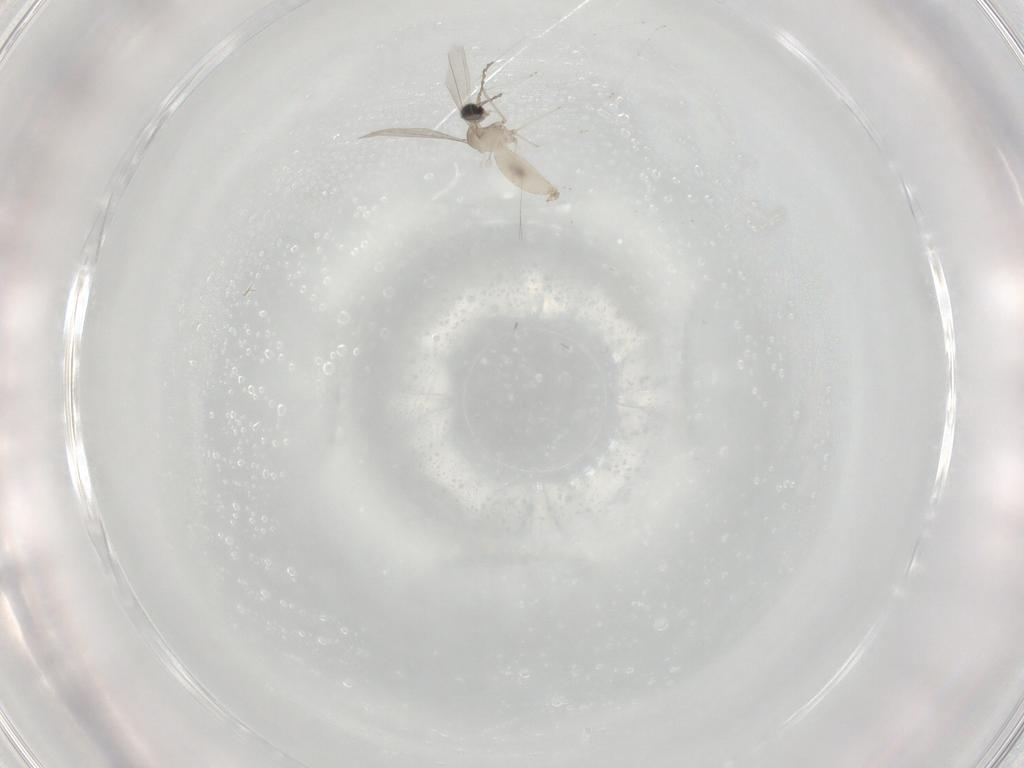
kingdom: Animalia
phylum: Arthropoda
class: Insecta
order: Diptera
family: Cecidomyiidae
